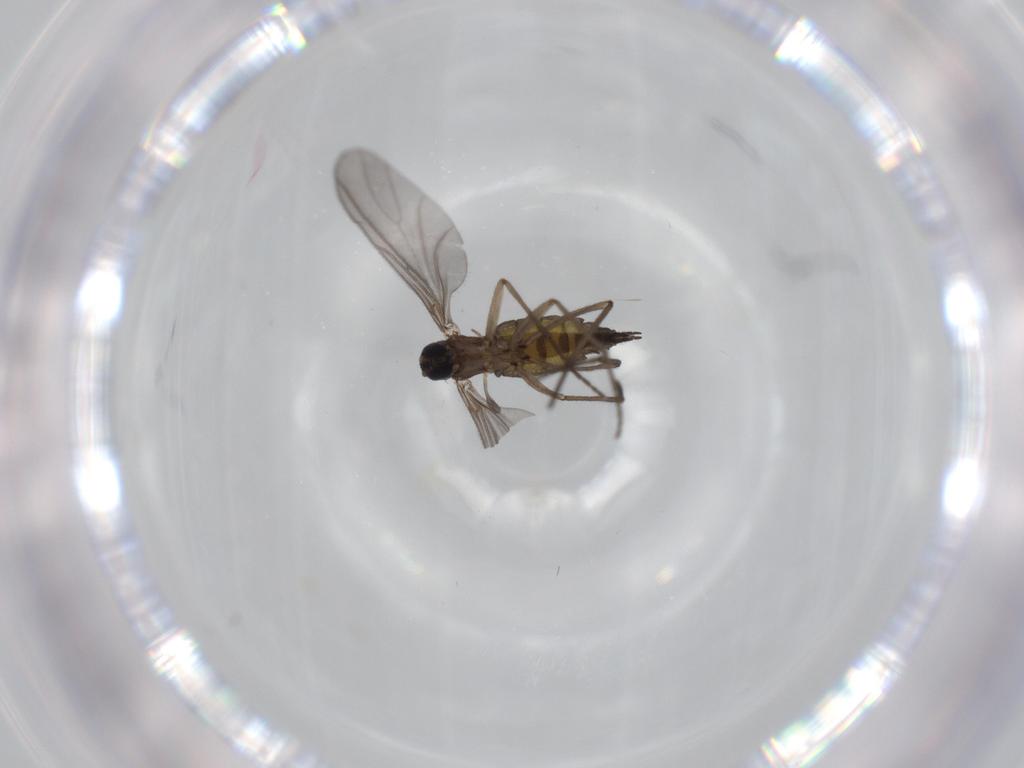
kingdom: Animalia
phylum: Arthropoda
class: Insecta
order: Diptera
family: Sciaridae
